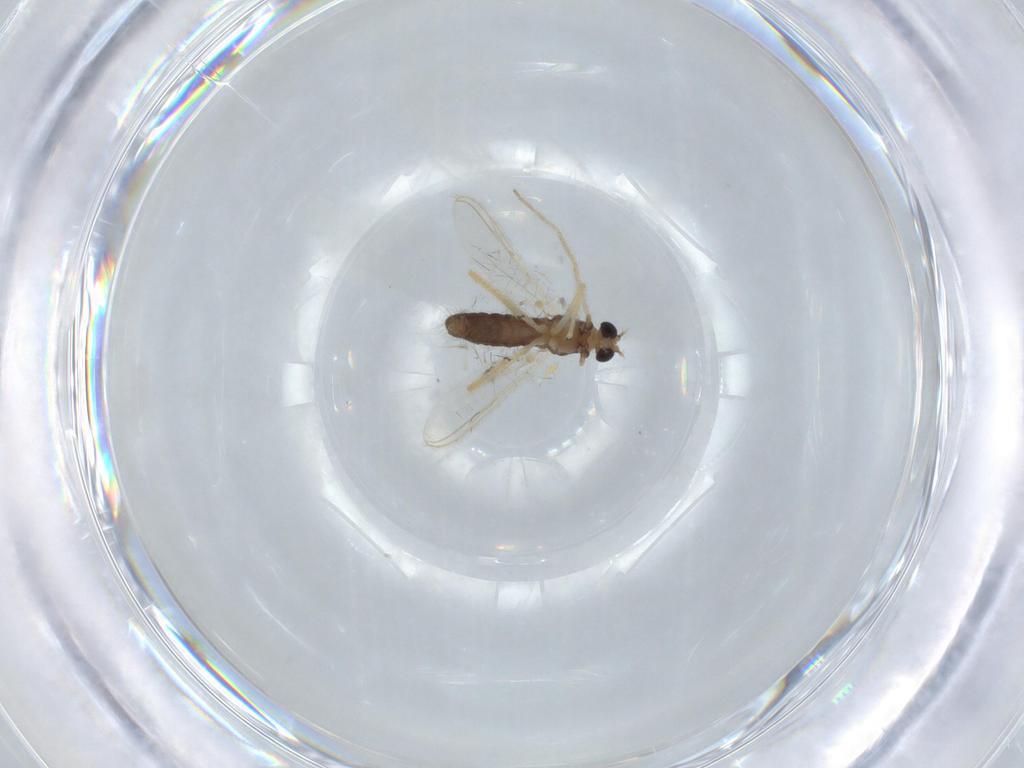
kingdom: Animalia
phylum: Arthropoda
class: Insecta
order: Diptera
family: Chironomidae
